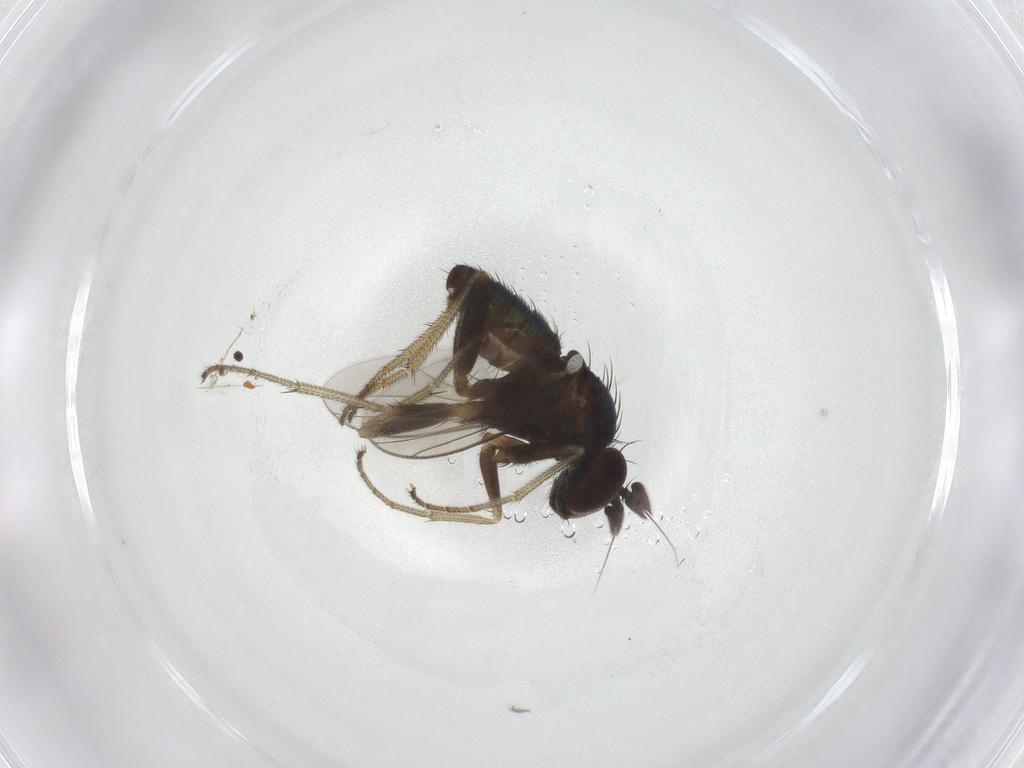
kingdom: Animalia
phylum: Arthropoda
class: Insecta
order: Diptera
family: Dolichopodidae
